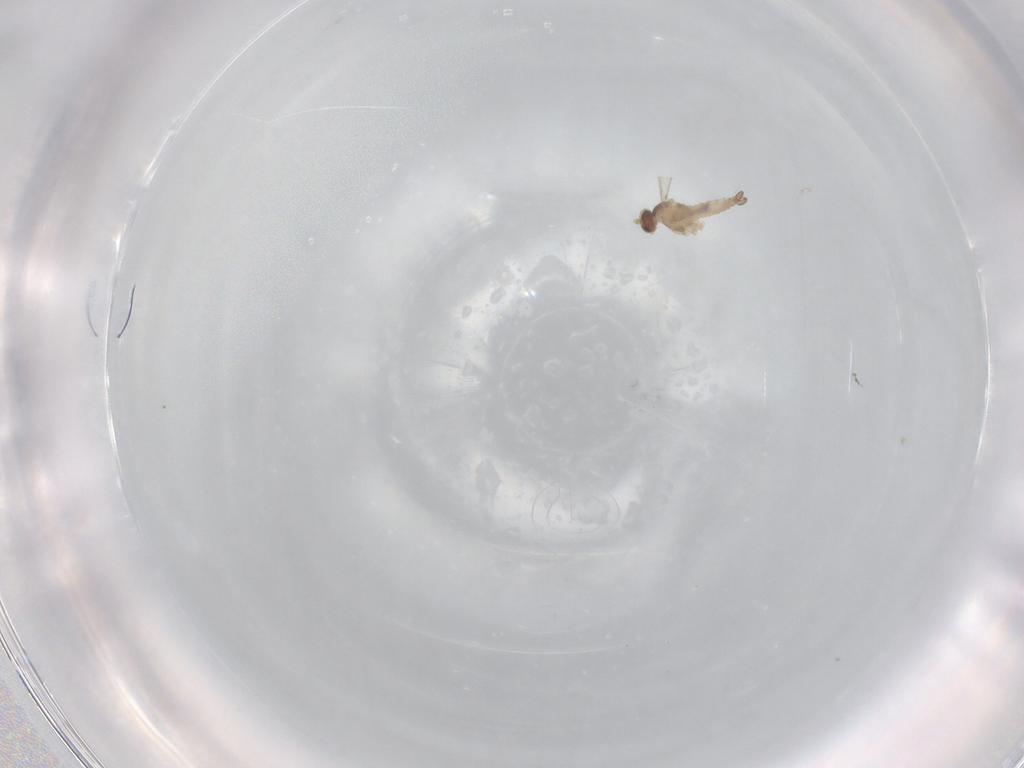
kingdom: Animalia
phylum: Arthropoda
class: Insecta
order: Diptera
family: Cecidomyiidae
